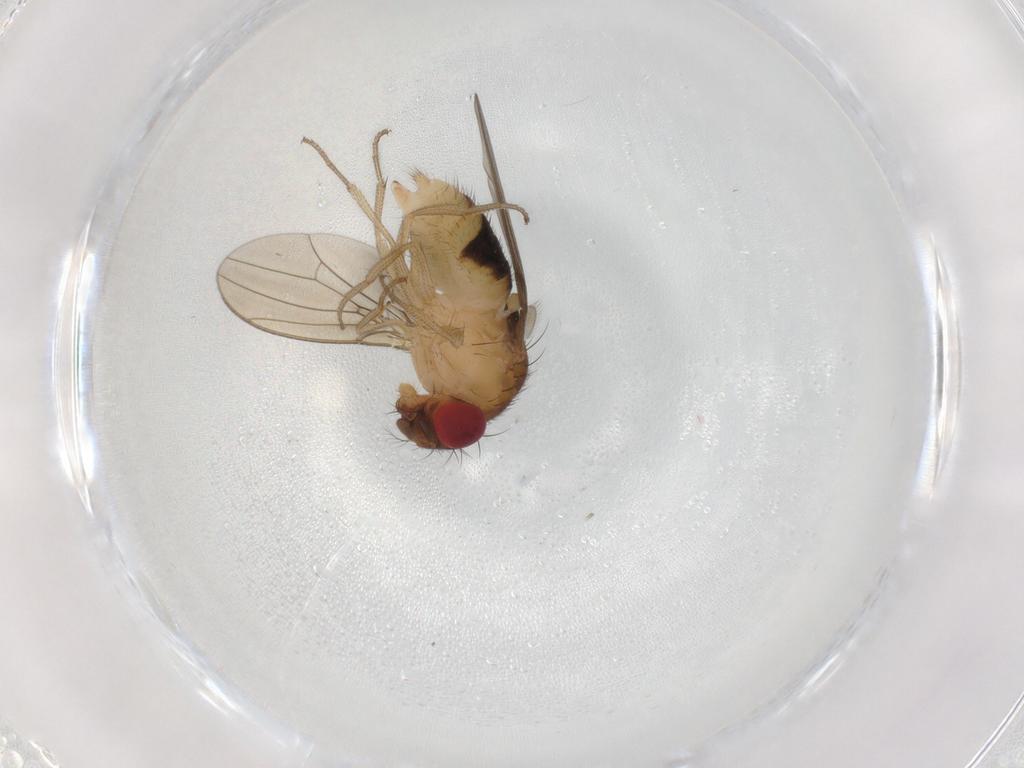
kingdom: Animalia
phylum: Arthropoda
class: Insecta
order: Diptera
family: Drosophilidae
